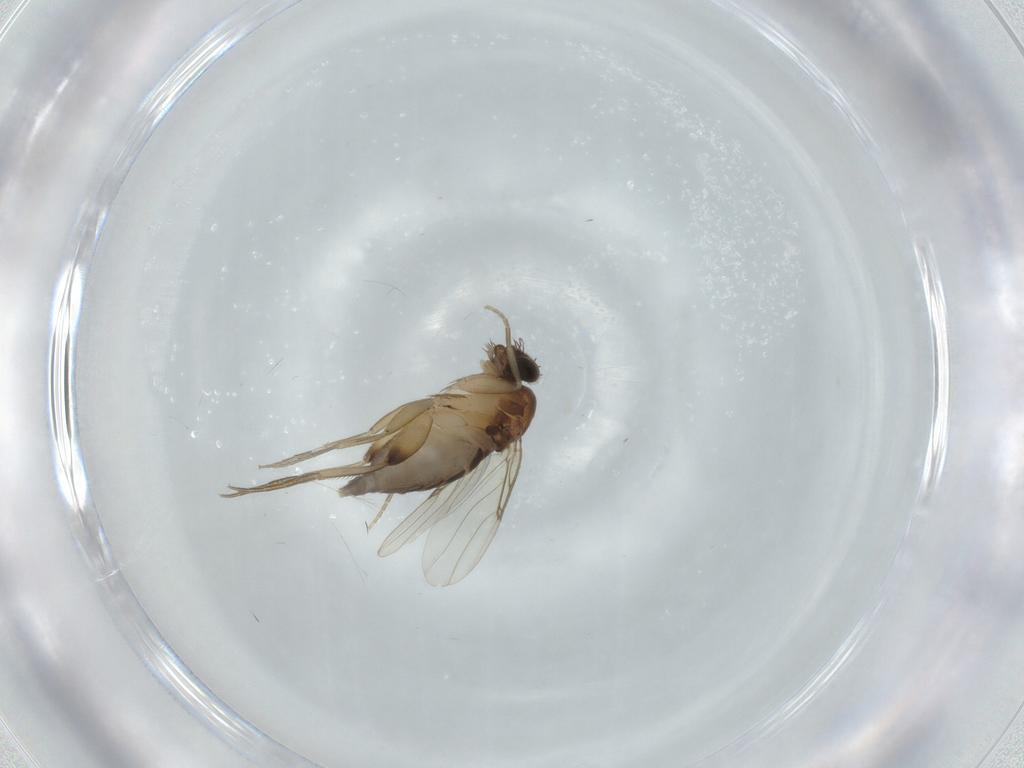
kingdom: Animalia
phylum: Arthropoda
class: Insecta
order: Diptera
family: Phoridae
